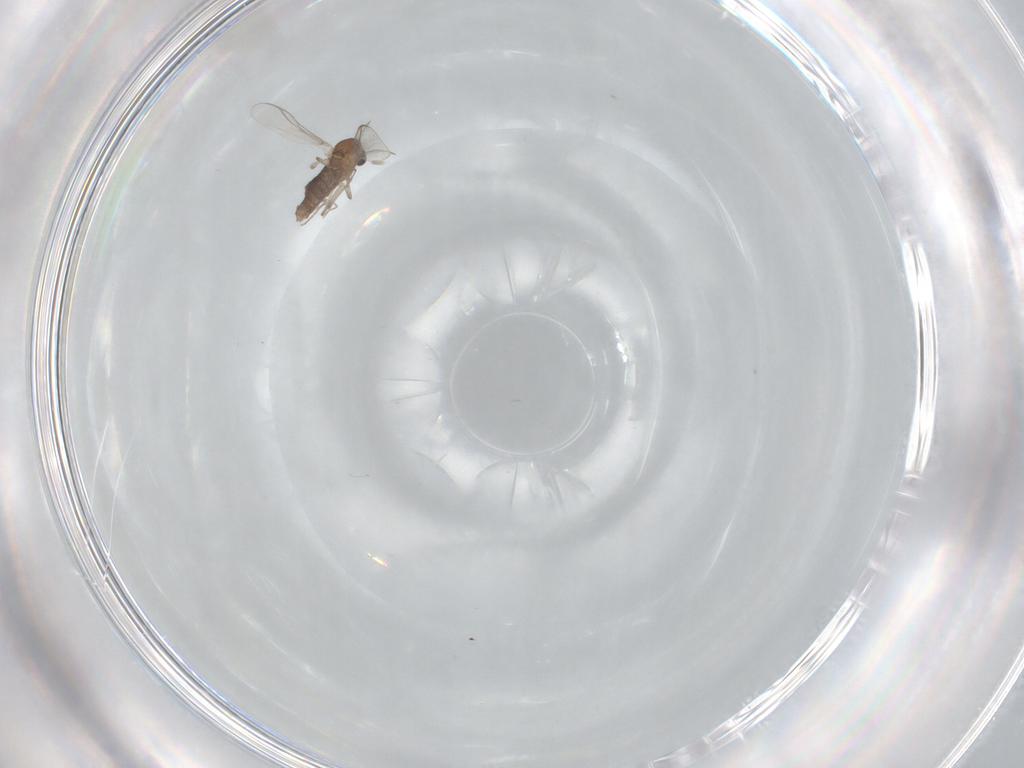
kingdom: Animalia
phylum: Arthropoda
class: Insecta
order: Diptera
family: Chironomidae
